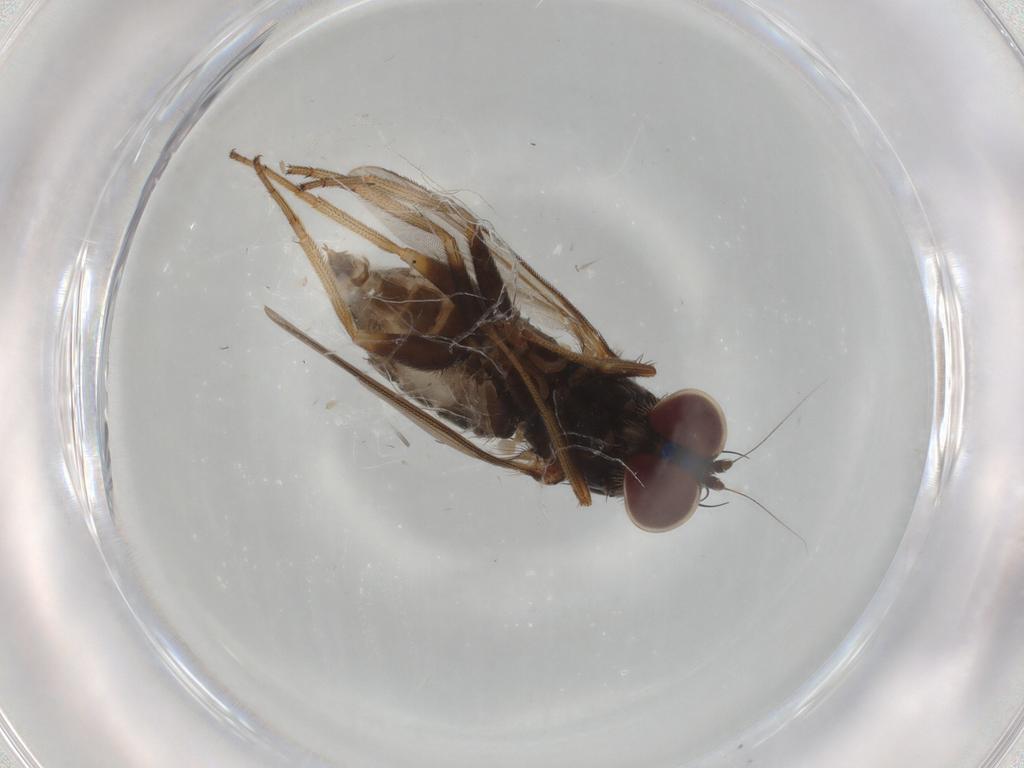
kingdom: Animalia
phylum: Arthropoda
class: Insecta
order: Diptera
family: Dolichopodidae
